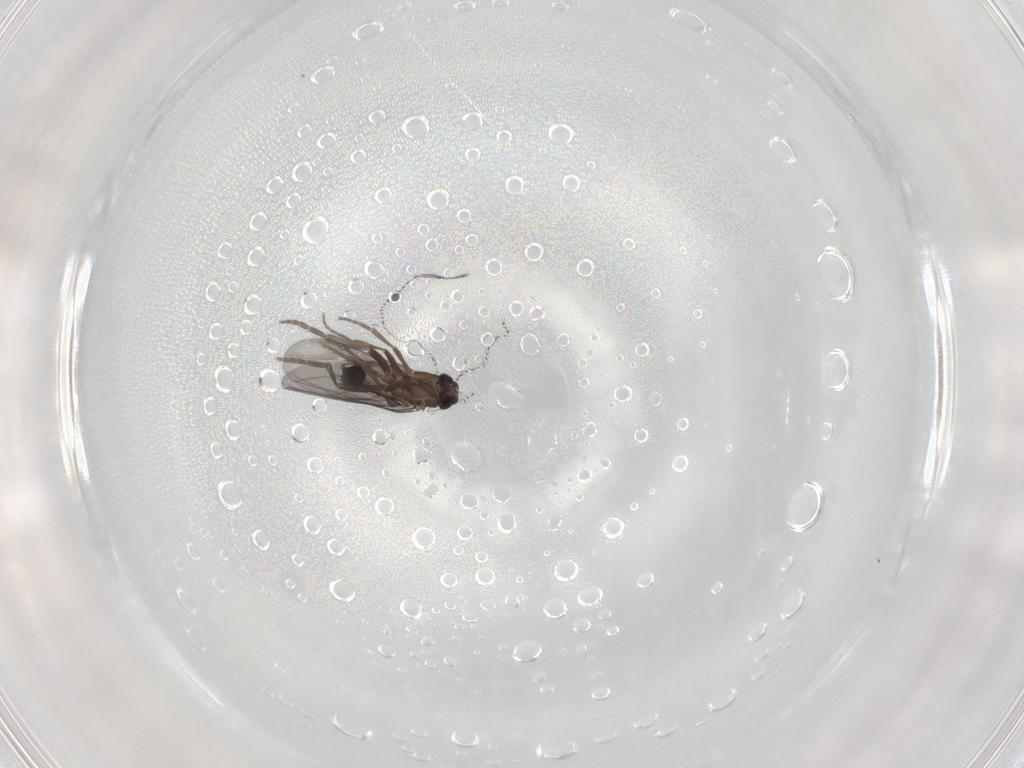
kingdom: Animalia
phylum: Arthropoda
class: Insecta
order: Diptera
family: Phoridae
